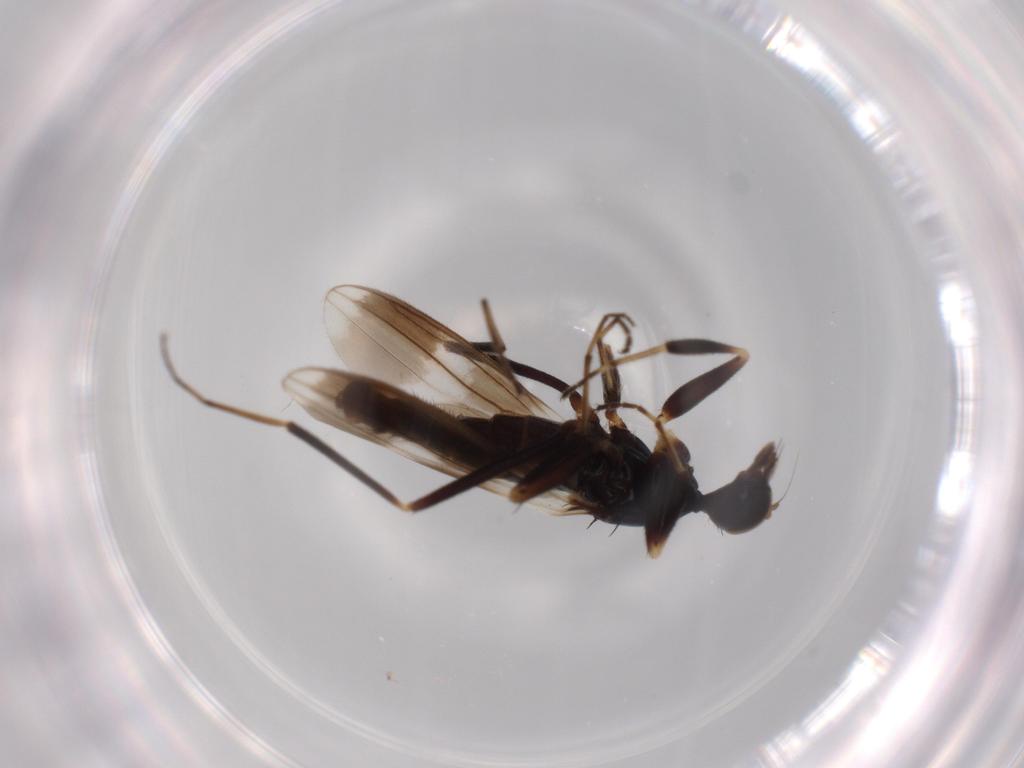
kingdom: Animalia
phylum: Arthropoda
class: Insecta
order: Diptera
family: Hybotidae
